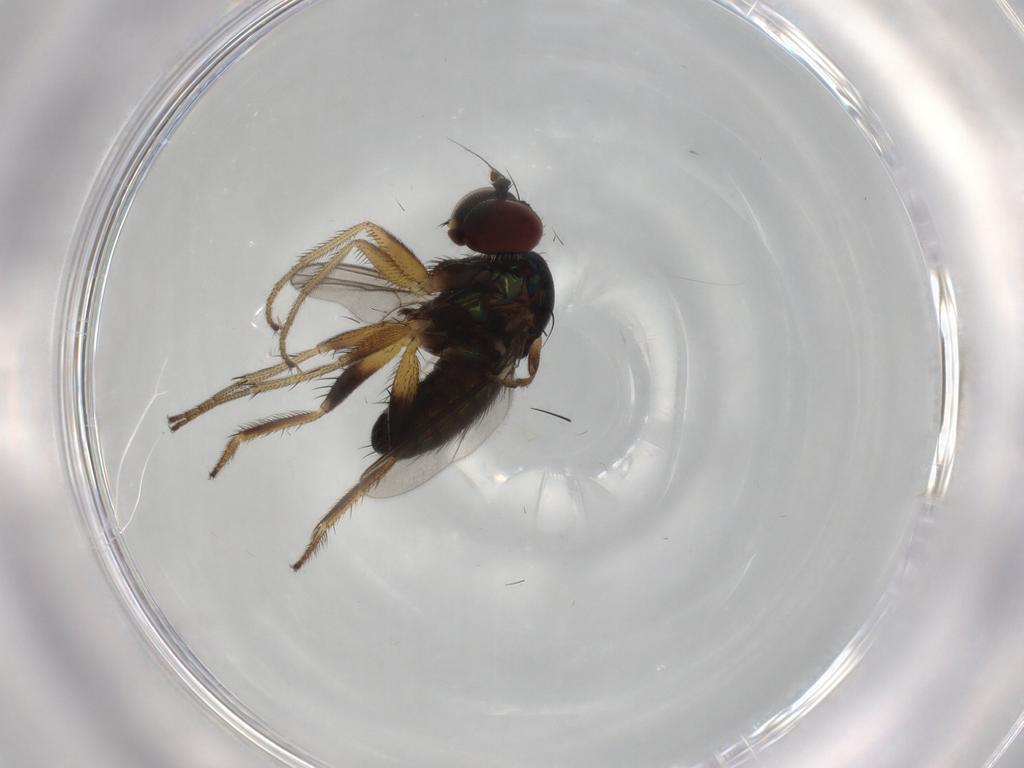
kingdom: Animalia
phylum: Arthropoda
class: Insecta
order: Diptera
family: Dolichopodidae
